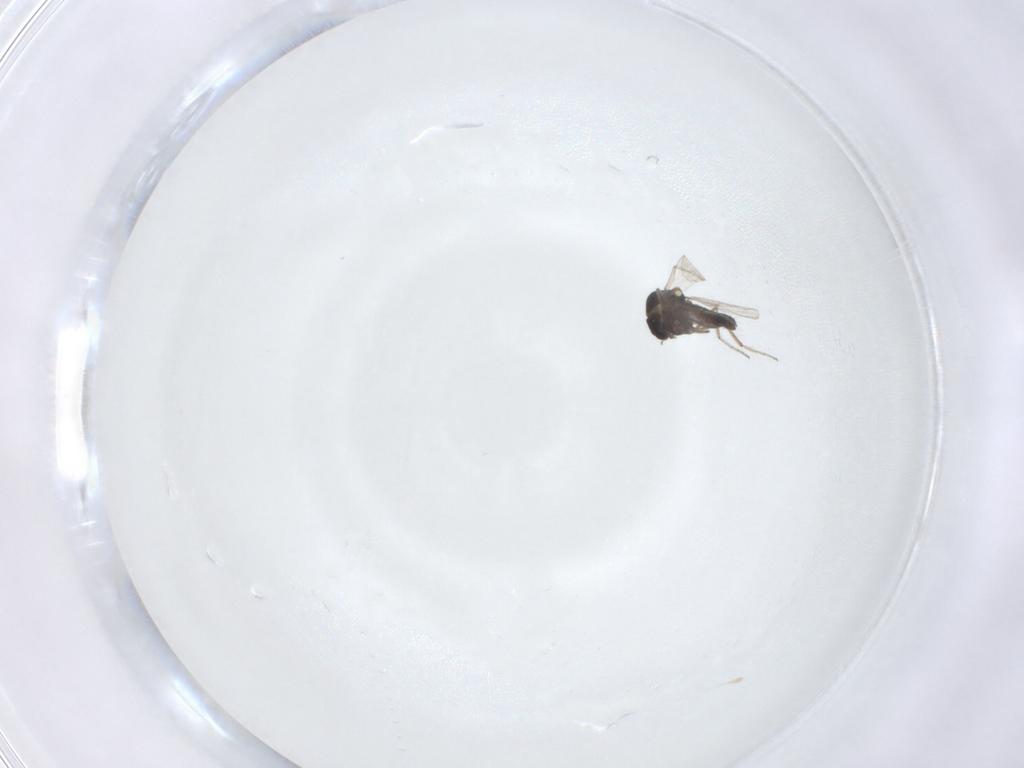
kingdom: Animalia
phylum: Arthropoda
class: Insecta
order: Diptera
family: Ceratopogonidae
